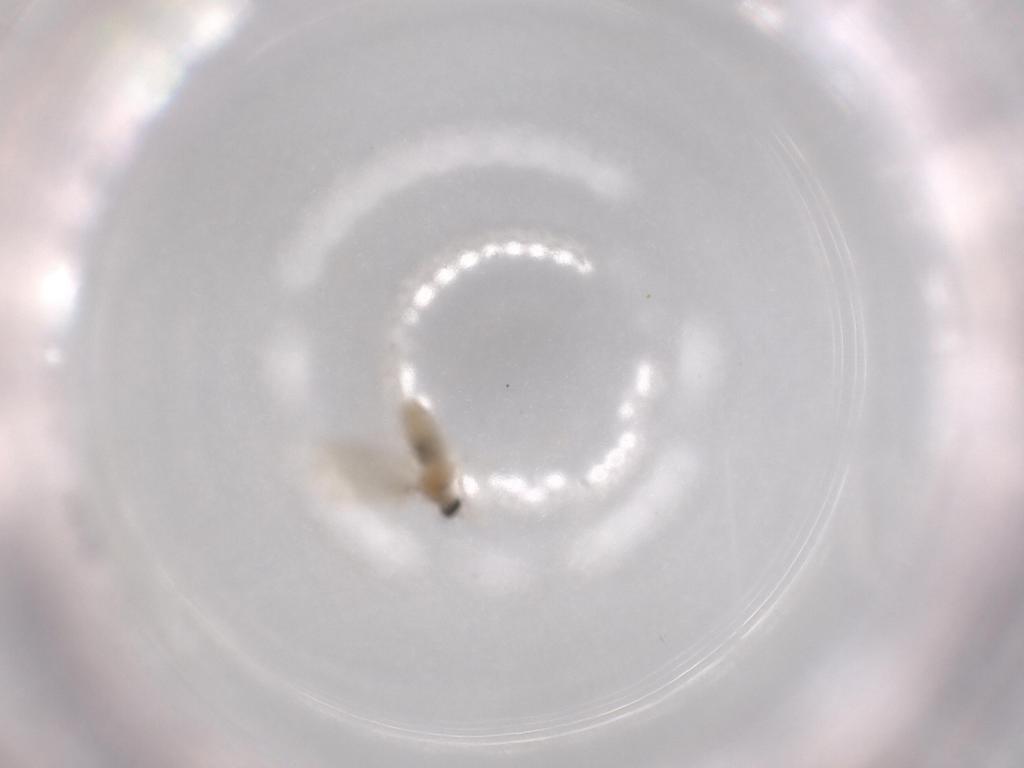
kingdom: Animalia
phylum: Arthropoda
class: Insecta
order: Diptera
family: Cecidomyiidae
